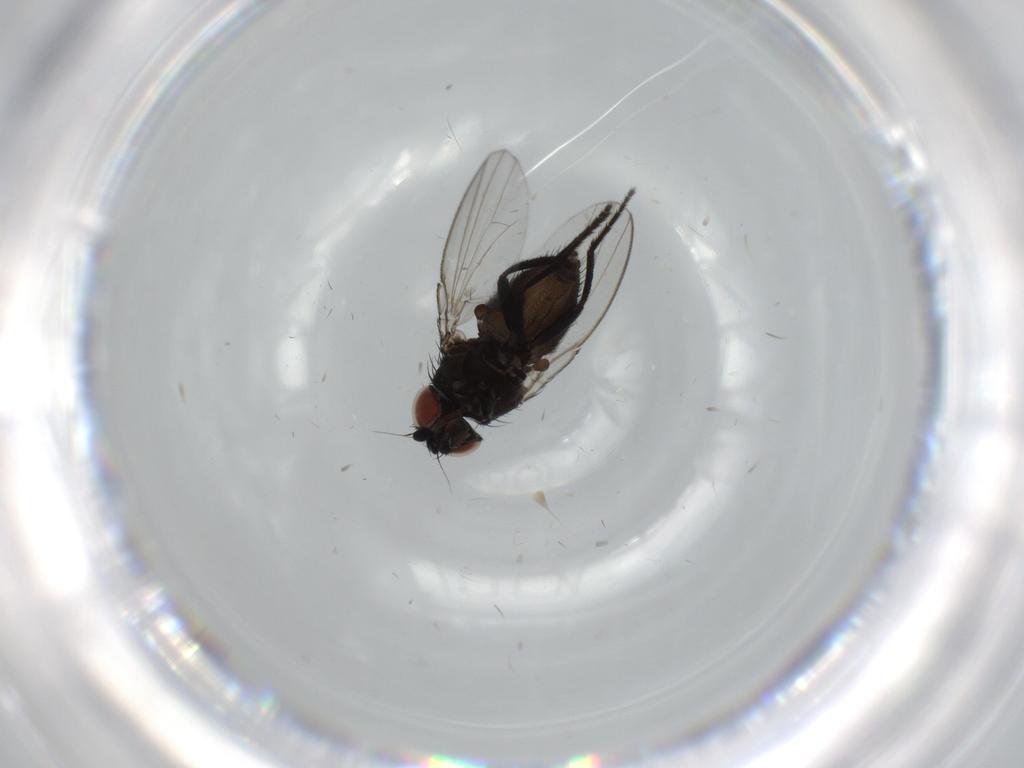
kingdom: Animalia
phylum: Arthropoda
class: Insecta
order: Diptera
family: Milichiidae
